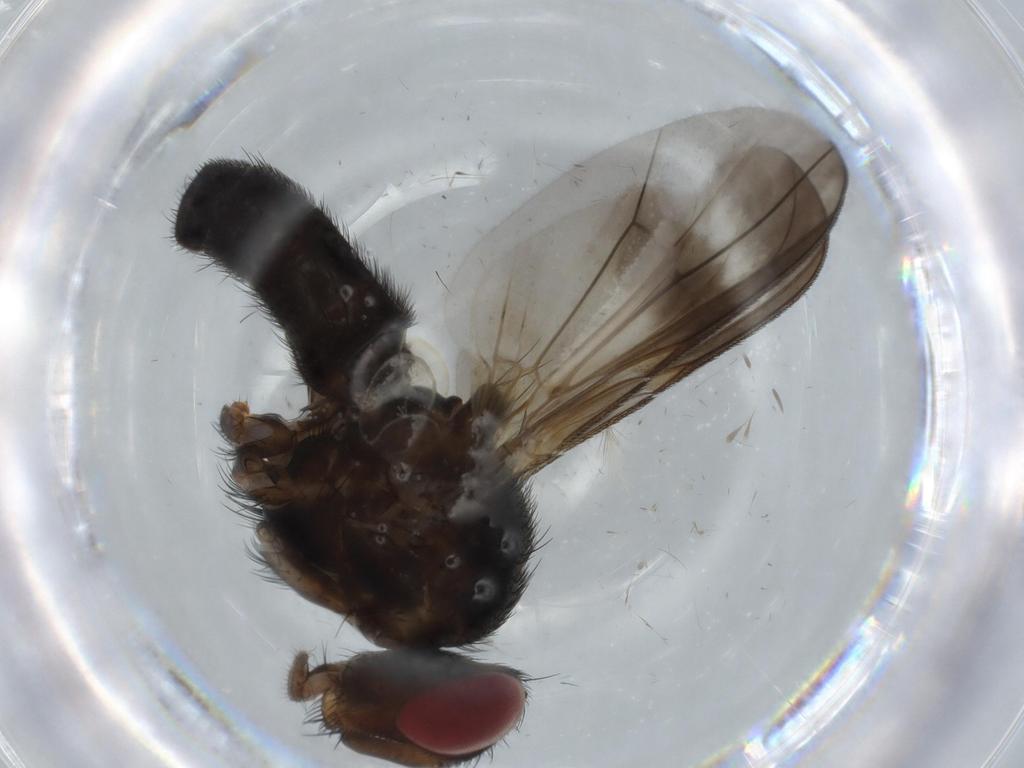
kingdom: Animalia
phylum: Arthropoda
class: Insecta
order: Diptera
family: Calliphoridae
